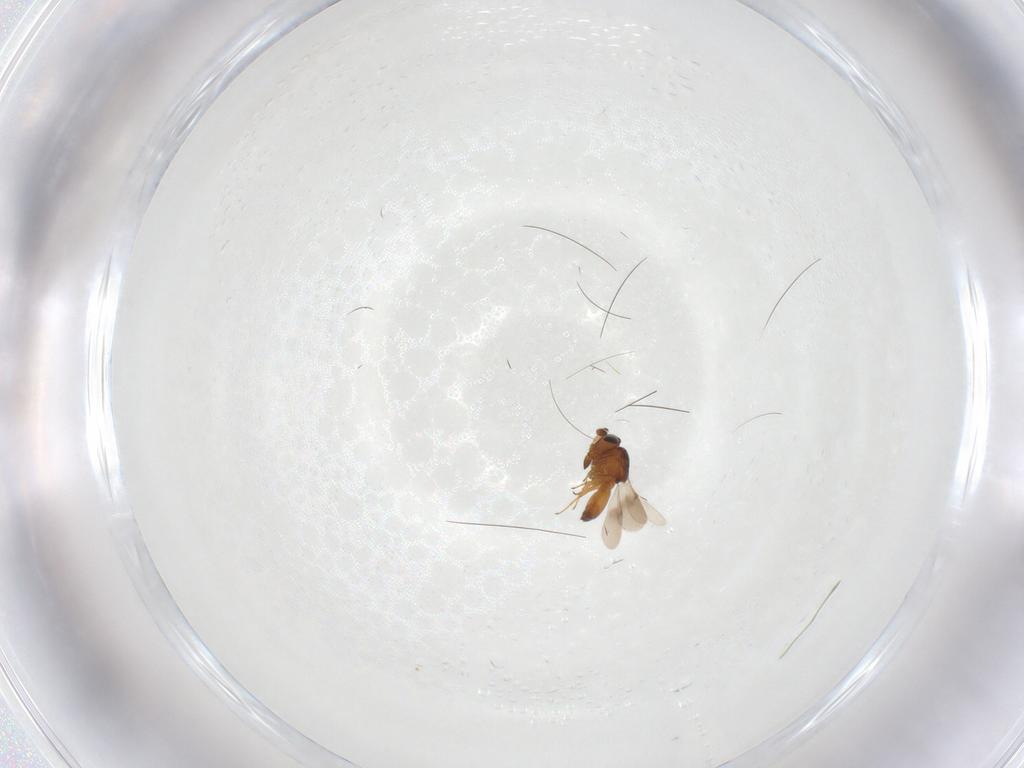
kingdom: Animalia
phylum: Arthropoda
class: Insecta
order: Hymenoptera
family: Scelionidae
